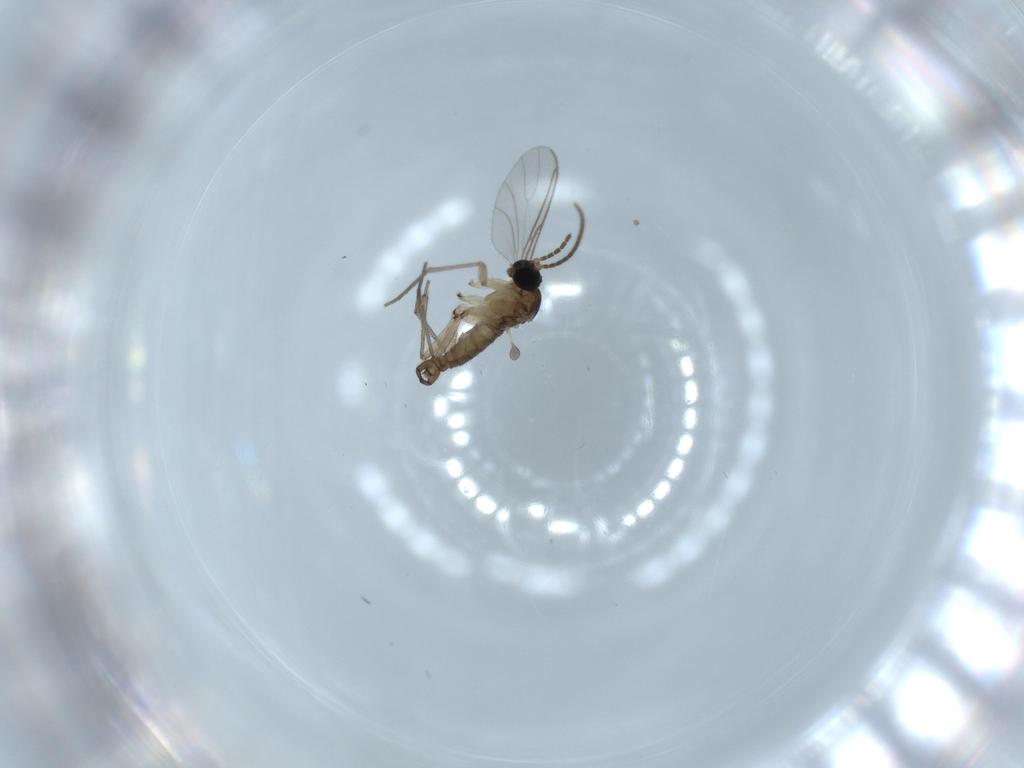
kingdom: Animalia
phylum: Arthropoda
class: Insecta
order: Diptera
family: Sciaridae
